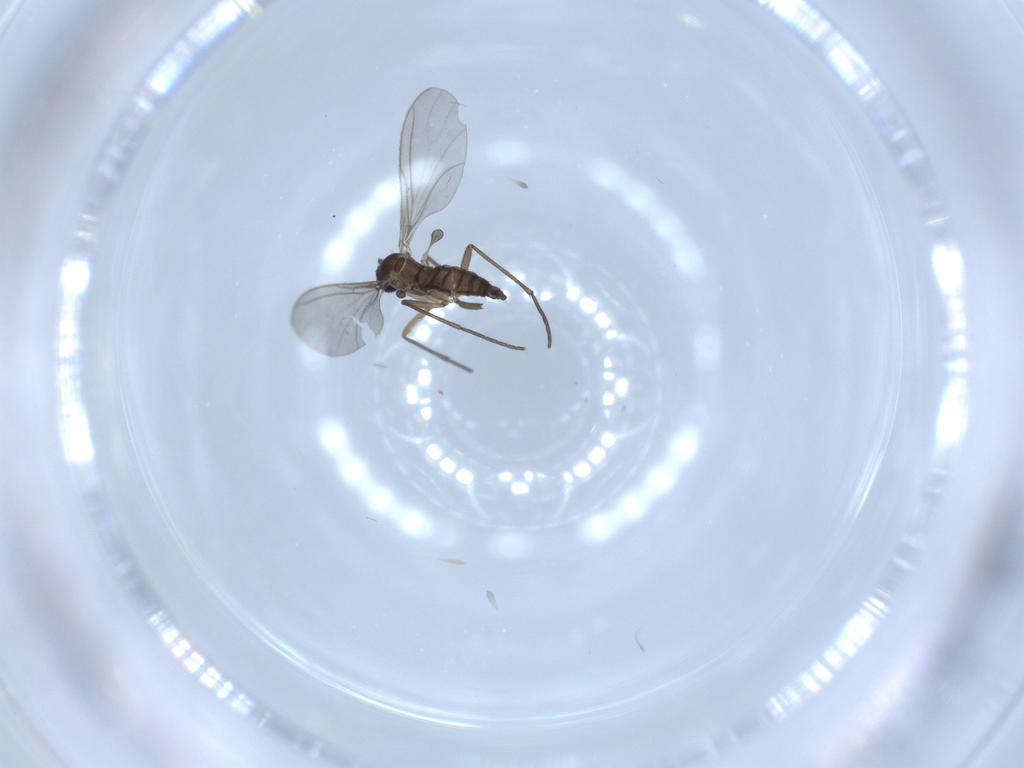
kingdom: Animalia
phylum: Arthropoda
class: Insecta
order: Diptera
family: Sciaridae
